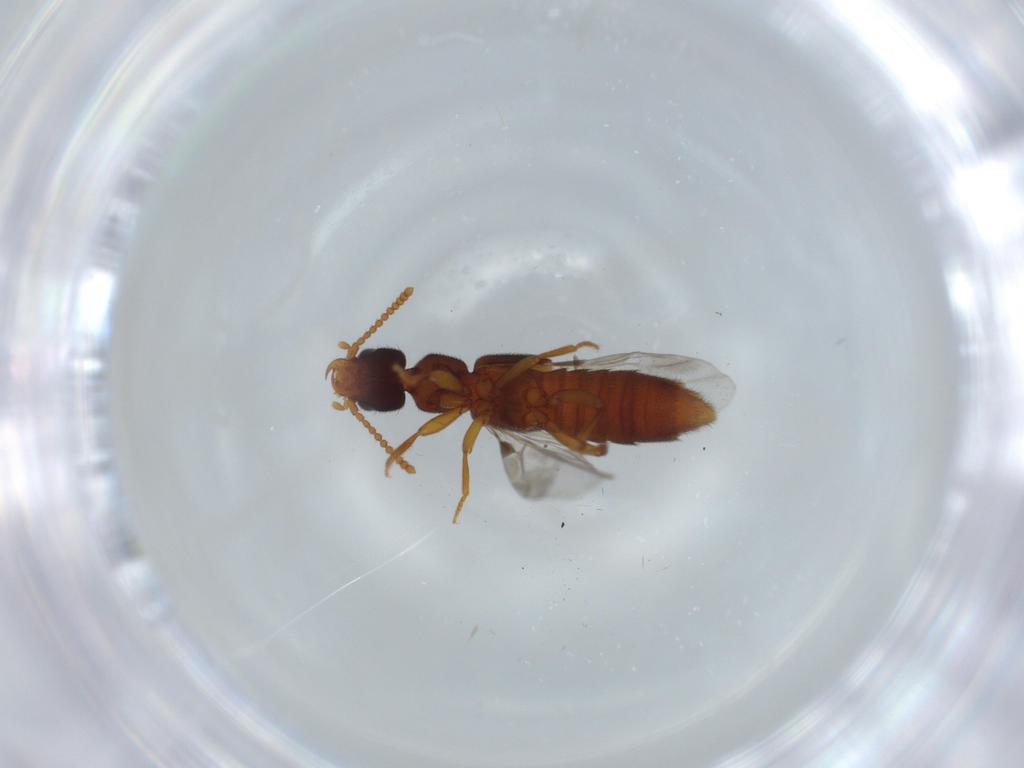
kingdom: Animalia
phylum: Arthropoda
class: Insecta
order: Coleoptera
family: Staphylinidae
